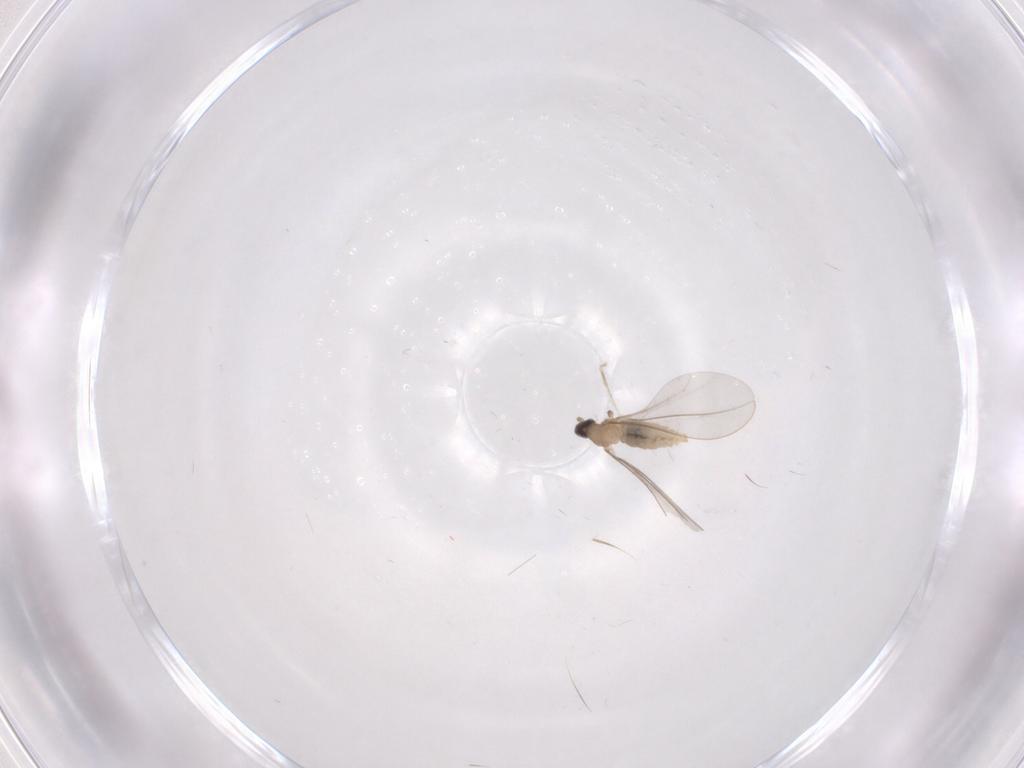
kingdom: Animalia
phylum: Arthropoda
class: Insecta
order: Diptera
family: Cecidomyiidae
